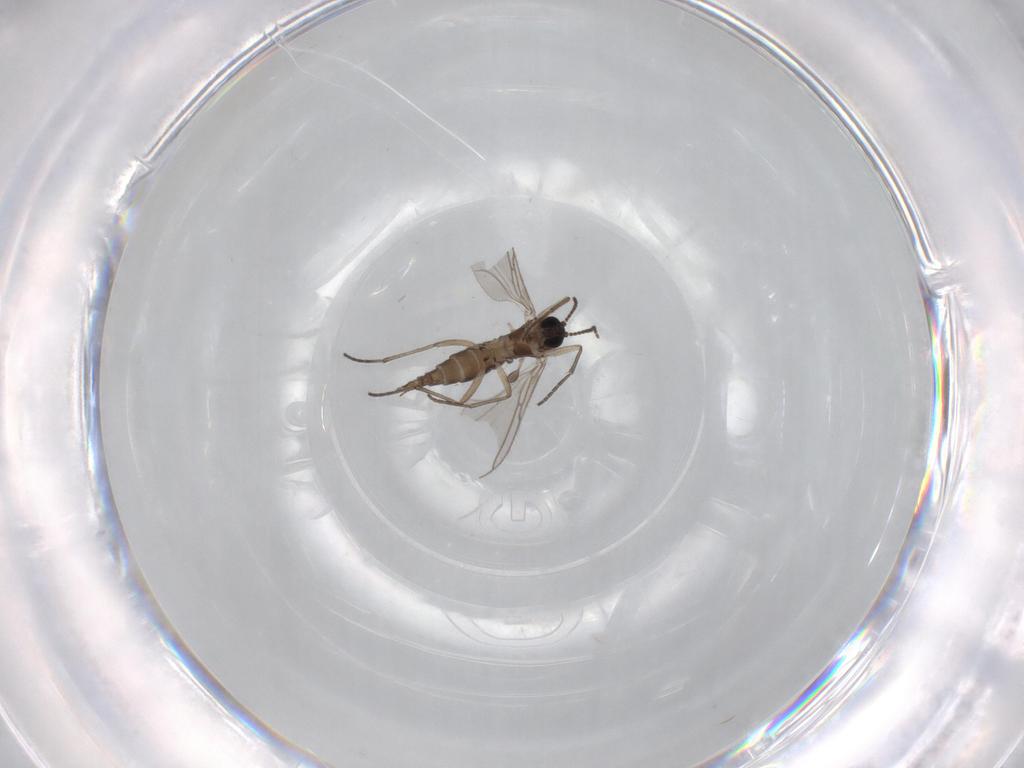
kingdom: Animalia
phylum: Arthropoda
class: Insecta
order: Diptera
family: Sciaridae
